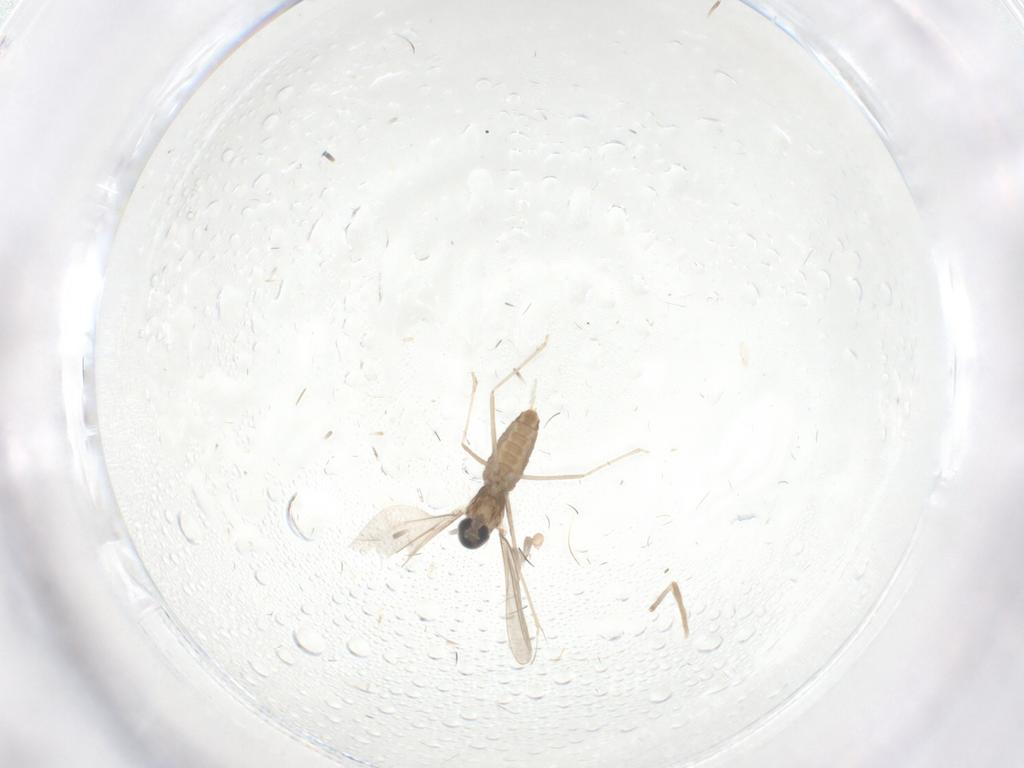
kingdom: Animalia
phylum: Arthropoda
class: Insecta
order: Diptera
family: Cecidomyiidae
